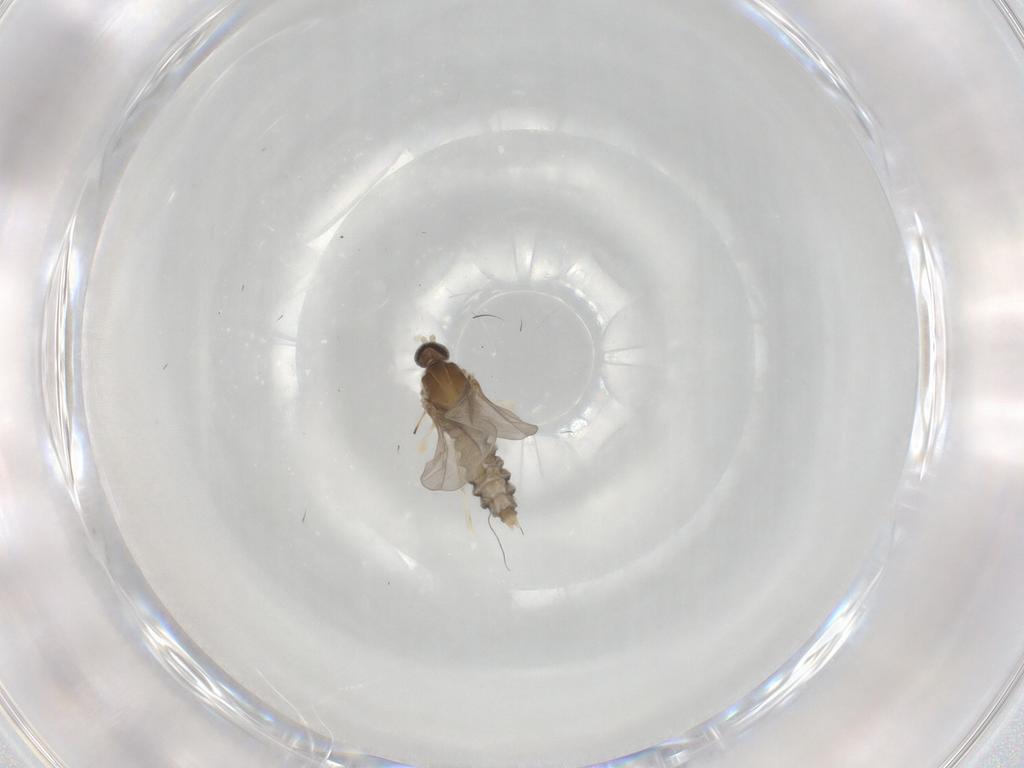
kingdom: Animalia
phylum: Arthropoda
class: Insecta
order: Diptera
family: Cecidomyiidae
